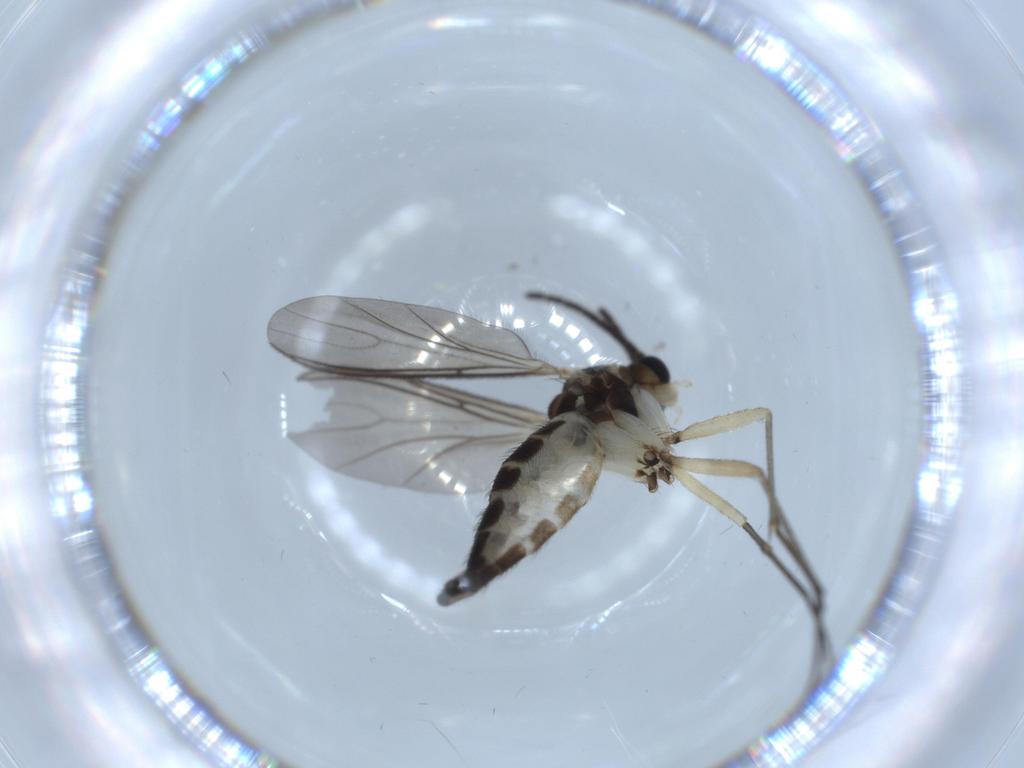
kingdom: Animalia
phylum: Arthropoda
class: Insecta
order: Diptera
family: Sciaridae
